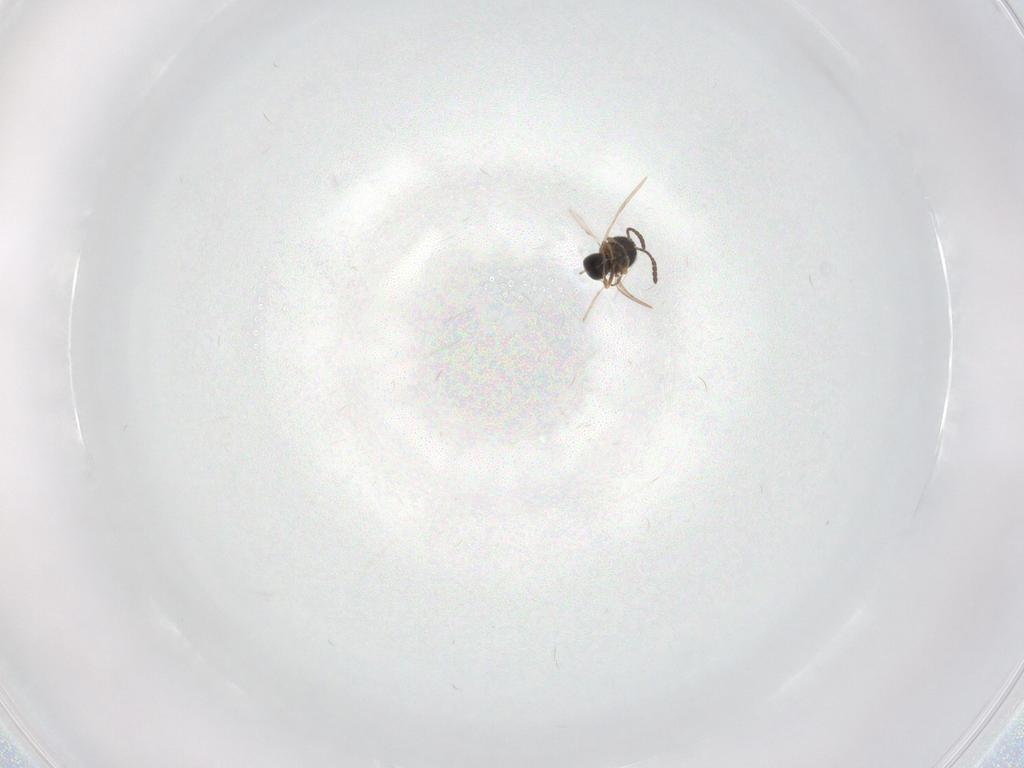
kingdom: Animalia
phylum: Arthropoda
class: Insecta
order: Hymenoptera
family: Scelionidae
